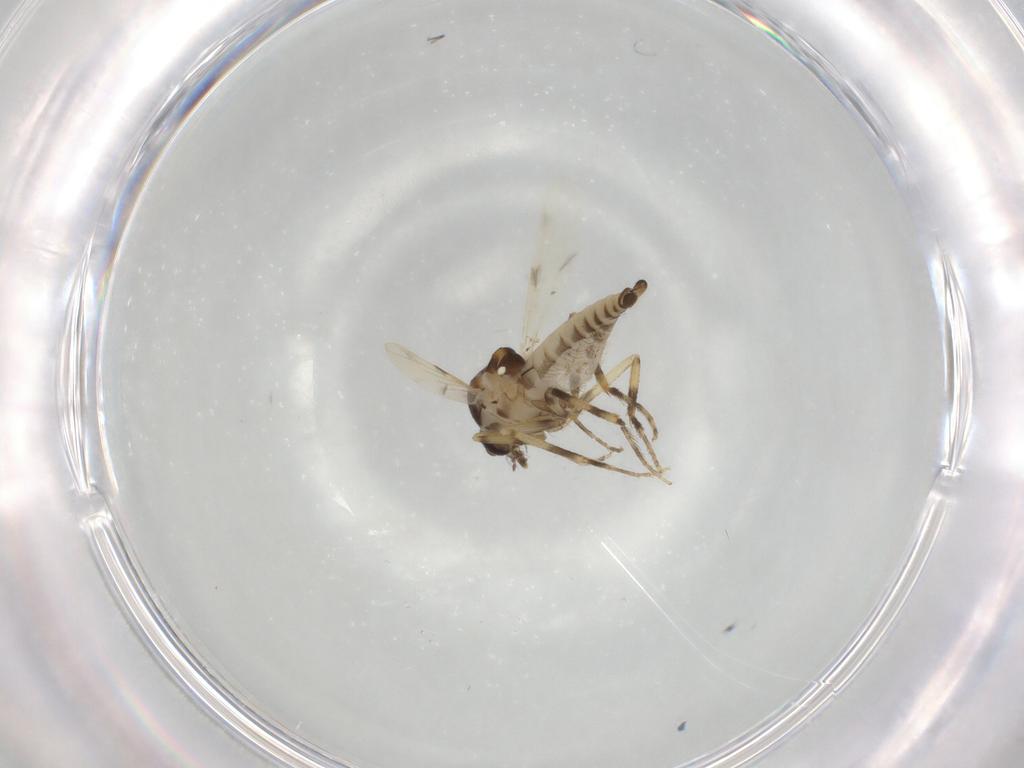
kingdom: Animalia
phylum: Arthropoda
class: Insecta
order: Diptera
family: Ceratopogonidae
